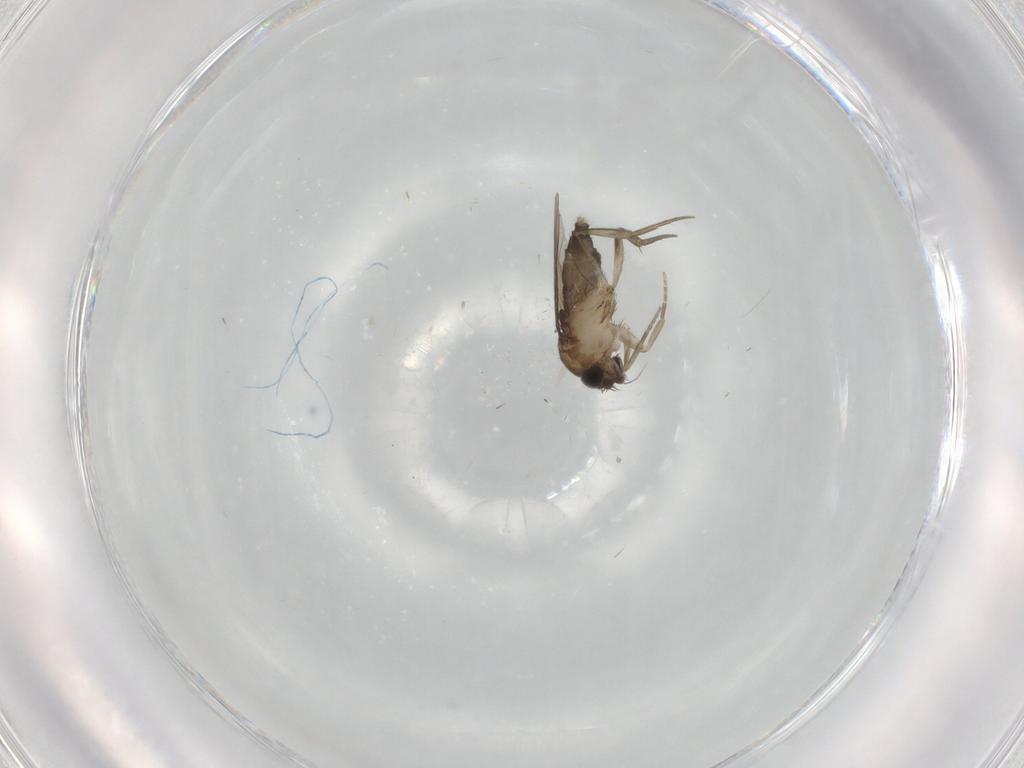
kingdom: Animalia
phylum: Arthropoda
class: Insecta
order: Diptera
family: Phoridae
